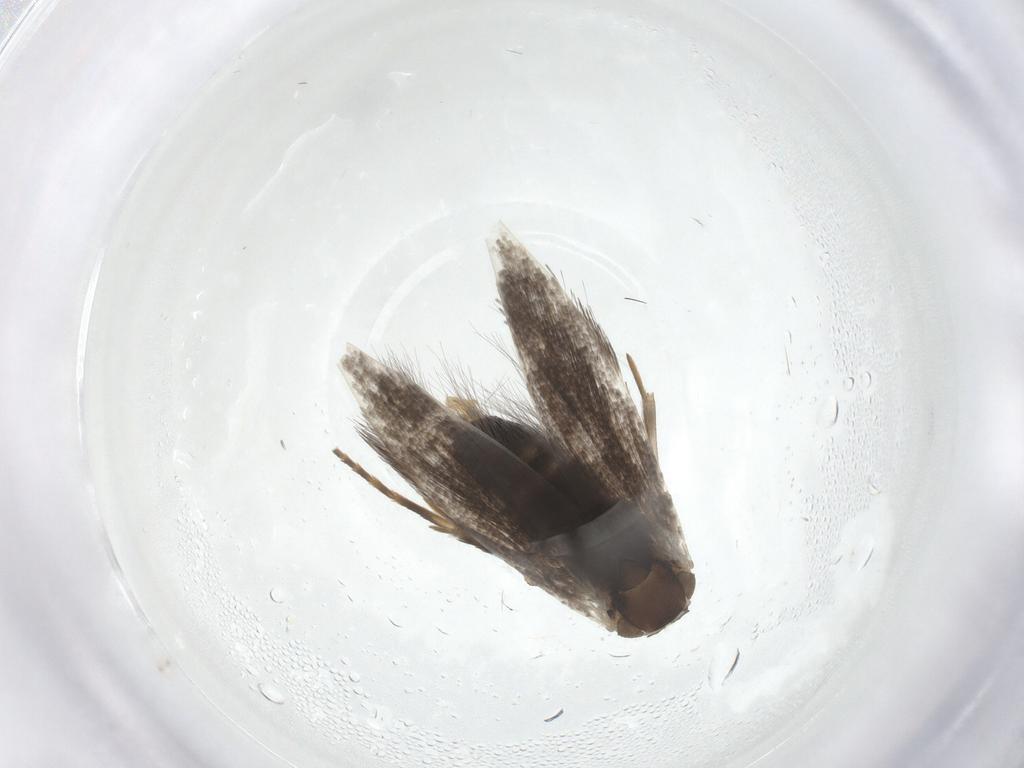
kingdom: Animalia
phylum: Arthropoda
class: Insecta
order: Lepidoptera
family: Elachistidae
